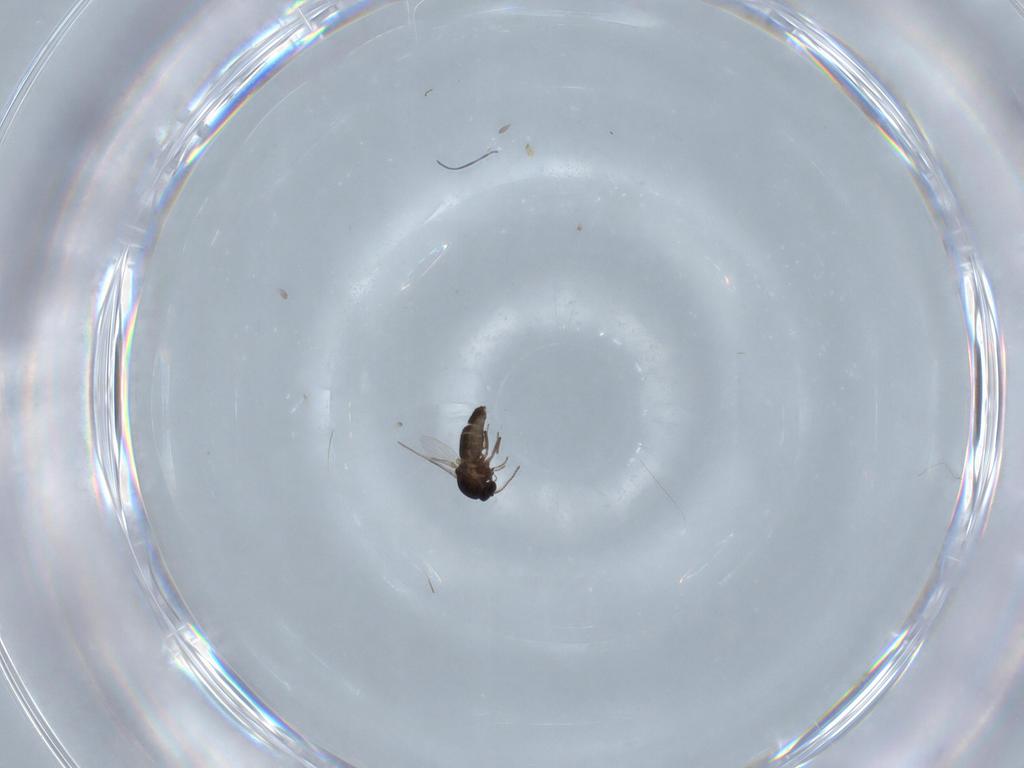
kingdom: Animalia
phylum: Arthropoda
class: Insecta
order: Diptera
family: Ceratopogonidae
